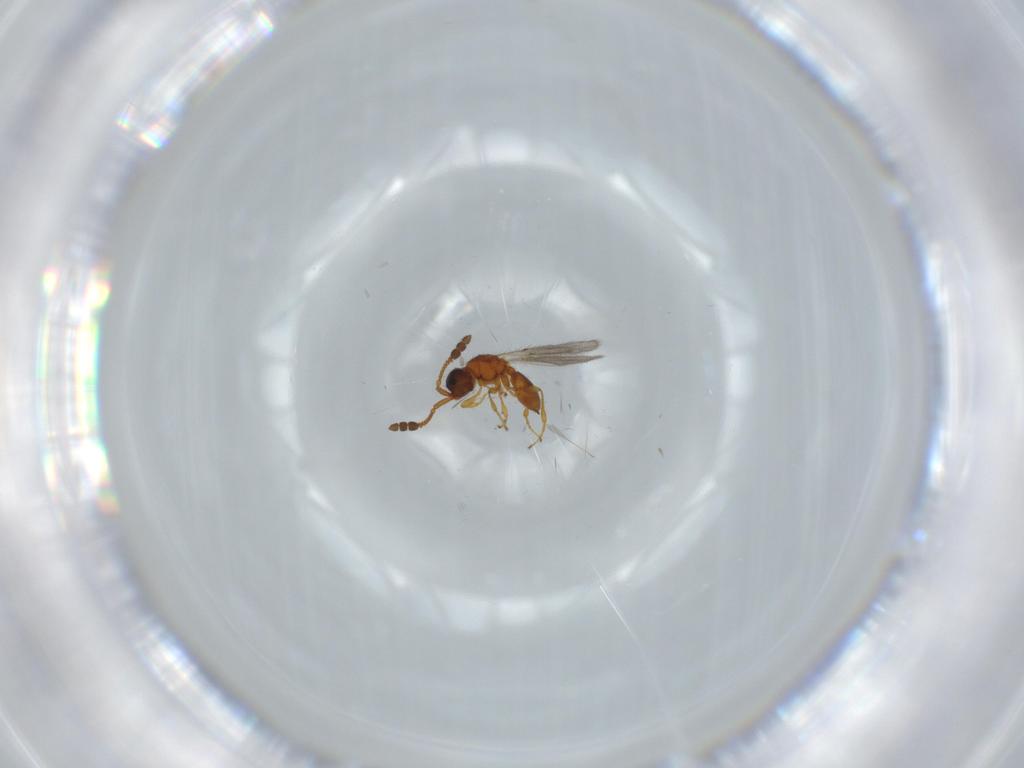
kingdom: Animalia
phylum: Arthropoda
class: Insecta
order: Hymenoptera
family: Diapriidae
